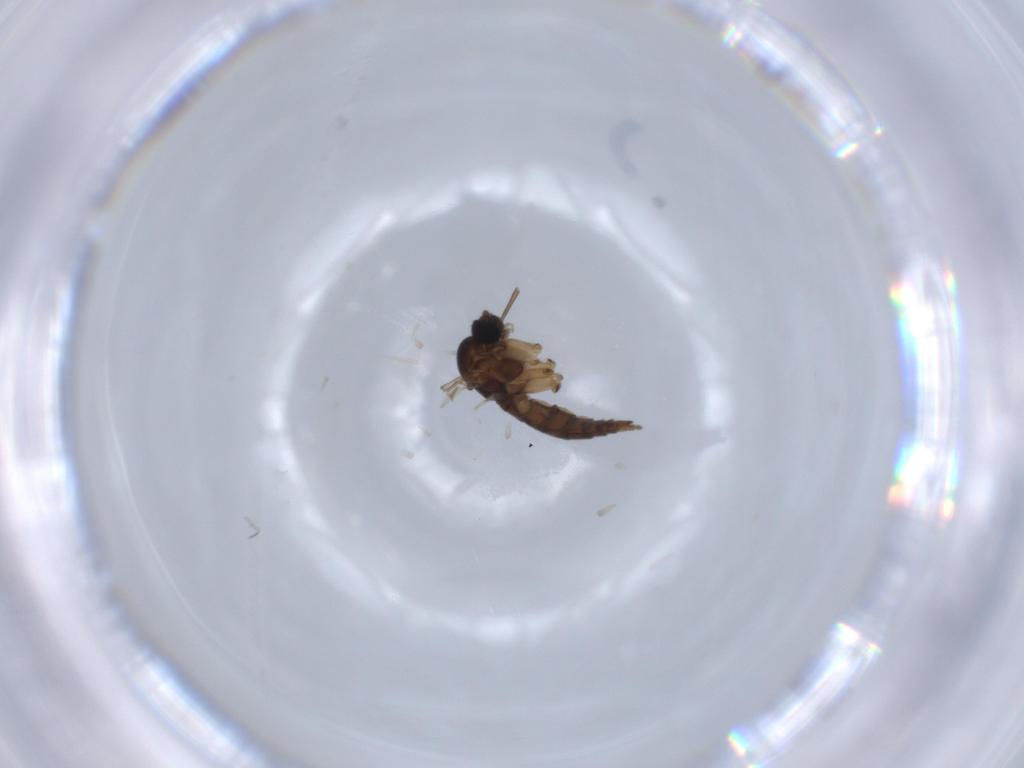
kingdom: Animalia
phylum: Arthropoda
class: Insecta
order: Diptera
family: Sciaridae
